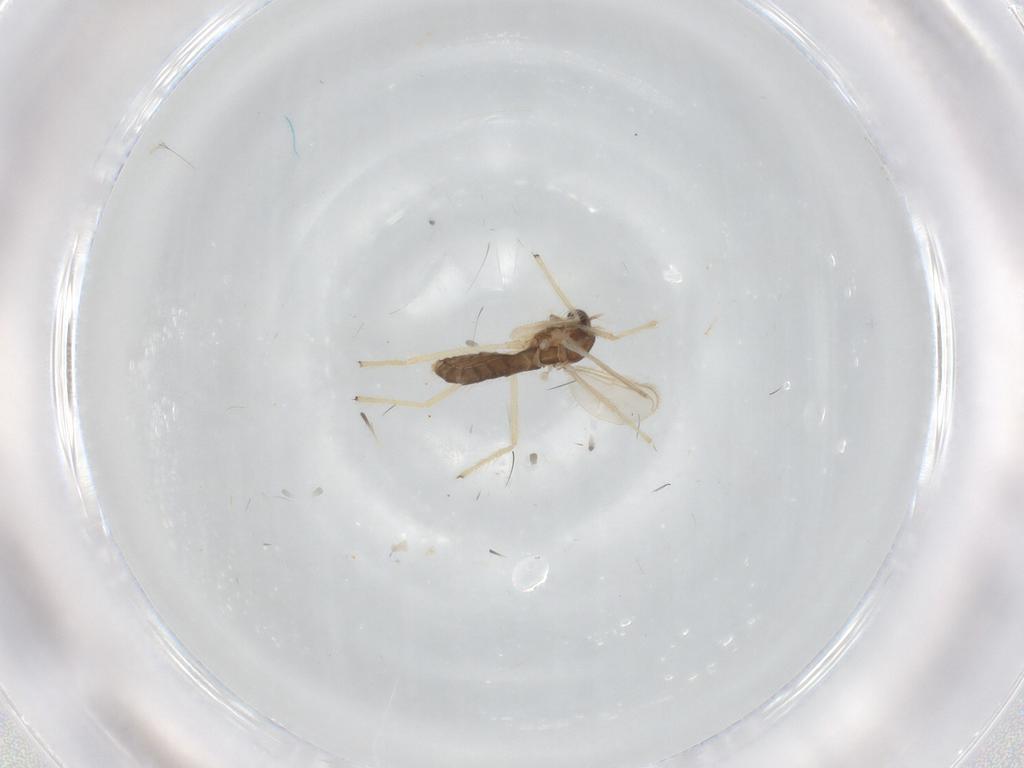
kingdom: Animalia
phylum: Arthropoda
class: Insecta
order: Diptera
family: Chironomidae
